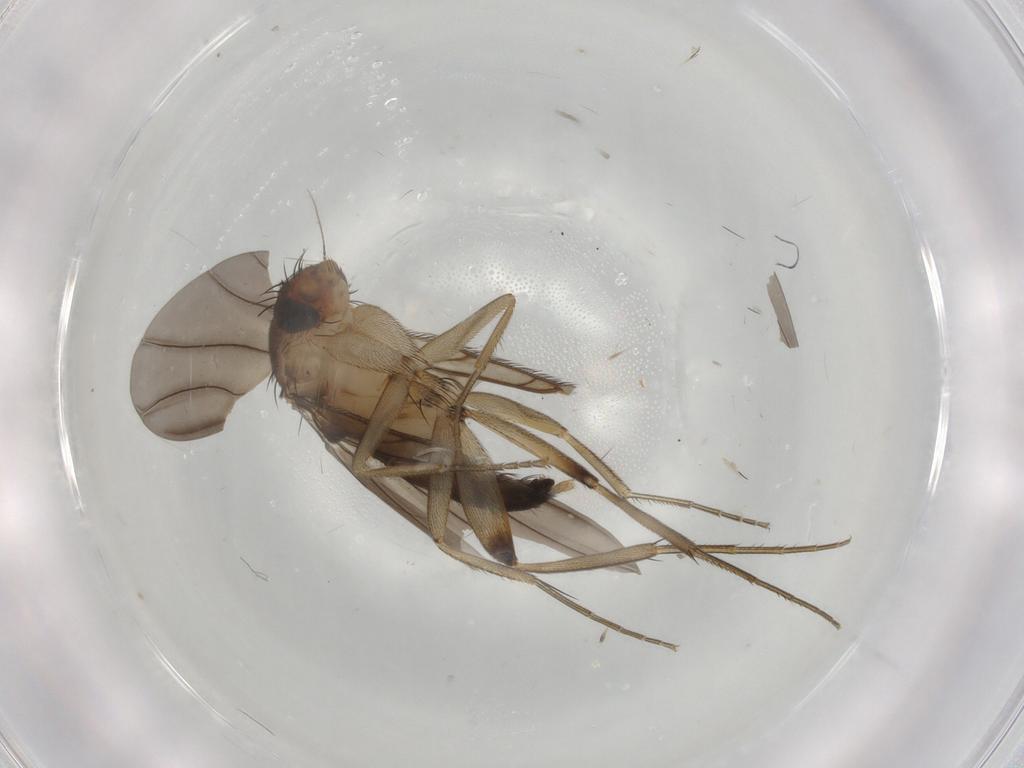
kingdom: Animalia
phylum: Arthropoda
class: Insecta
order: Diptera
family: Phoridae
